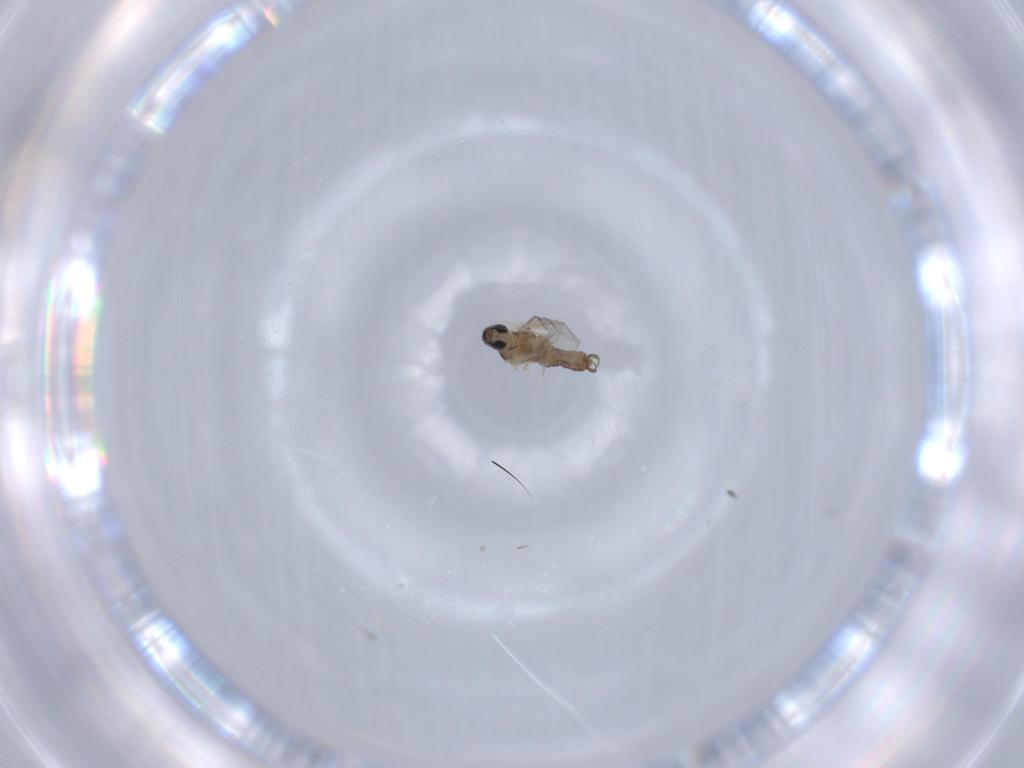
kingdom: Animalia
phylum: Arthropoda
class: Insecta
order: Diptera
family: Cecidomyiidae
